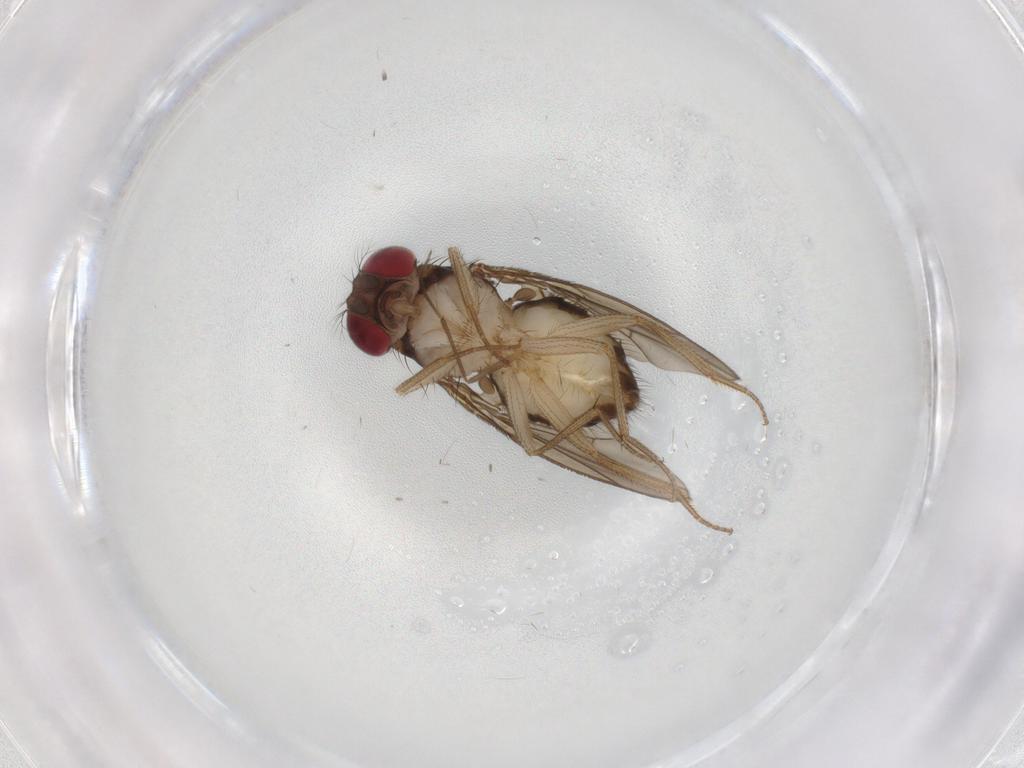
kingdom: Animalia
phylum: Arthropoda
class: Insecta
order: Diptera
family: Drosophilidae
